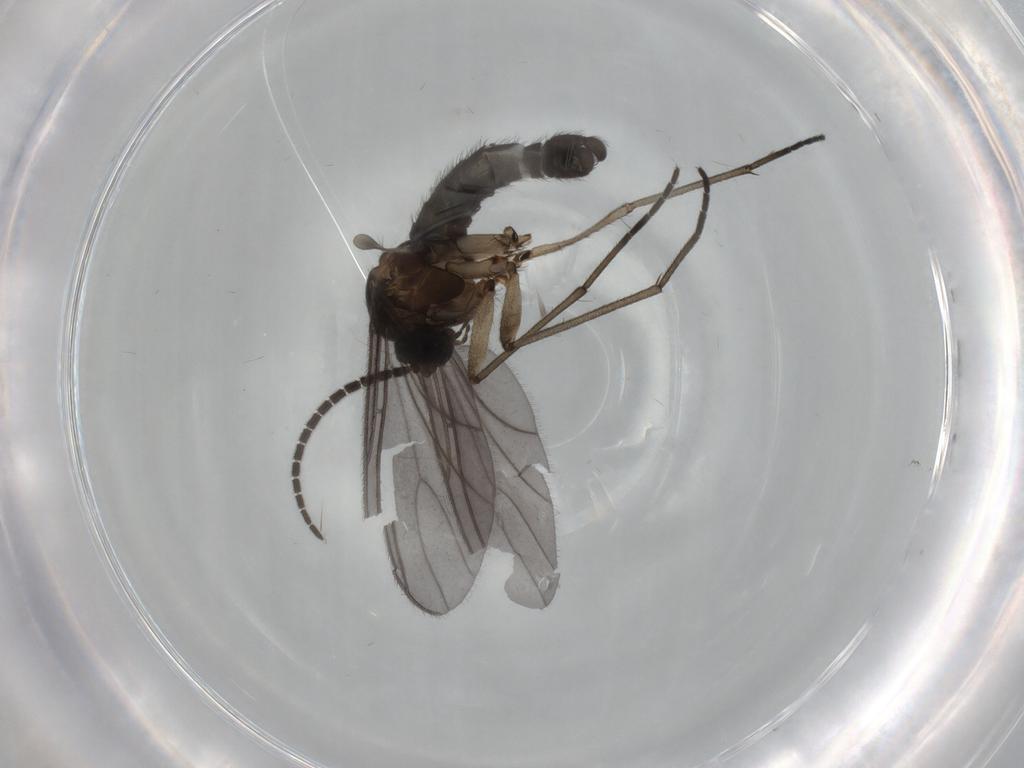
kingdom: Animalia
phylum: Arthropoda
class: Insecta
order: Diptera
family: Sciaridae
